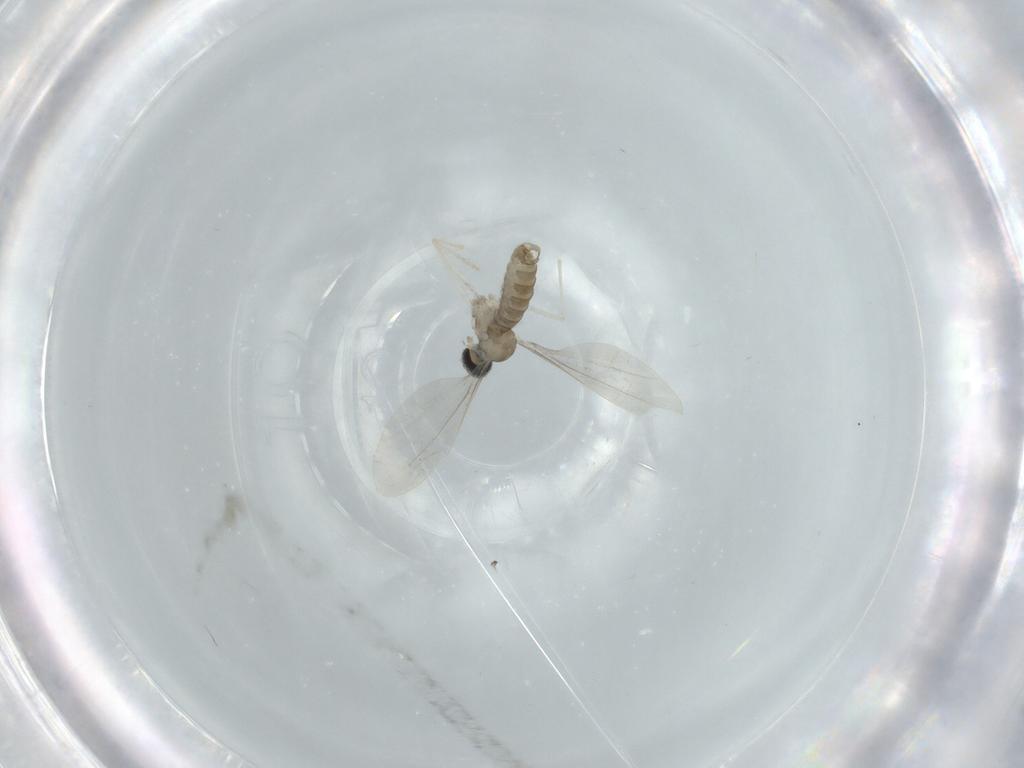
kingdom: Animalia
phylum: Arthropoda
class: Insecta
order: Diptera
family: Cecidomyiidae
